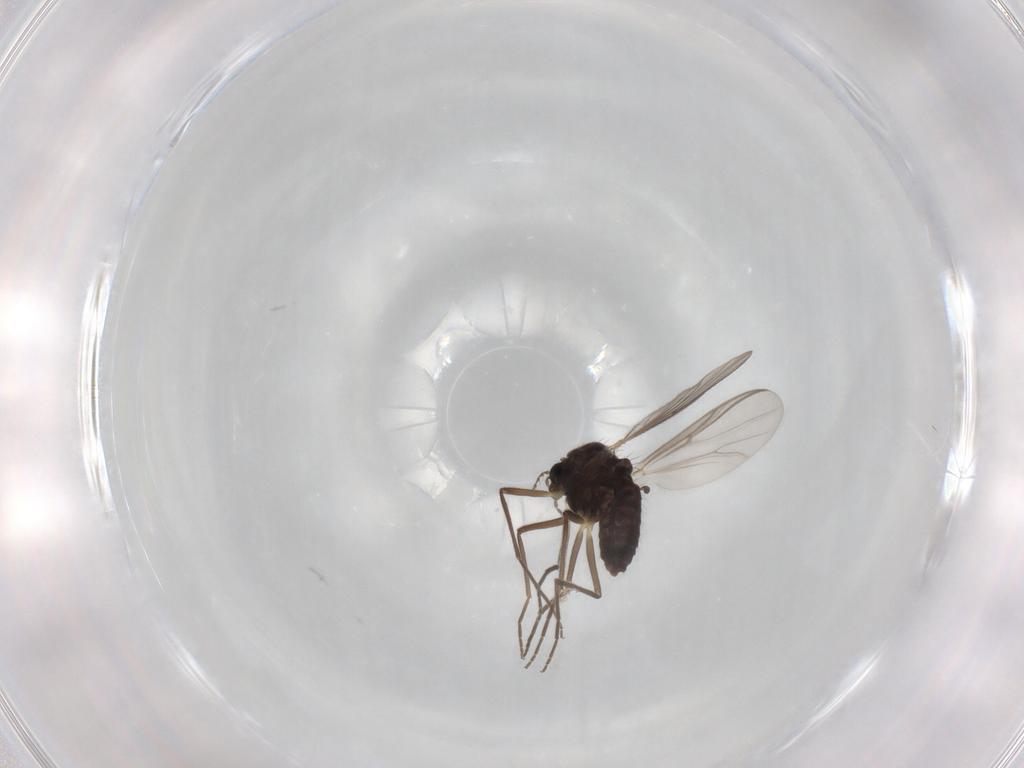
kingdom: Animalia
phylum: Arthropoda
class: Insecta
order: Diptera
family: Chironomidae
